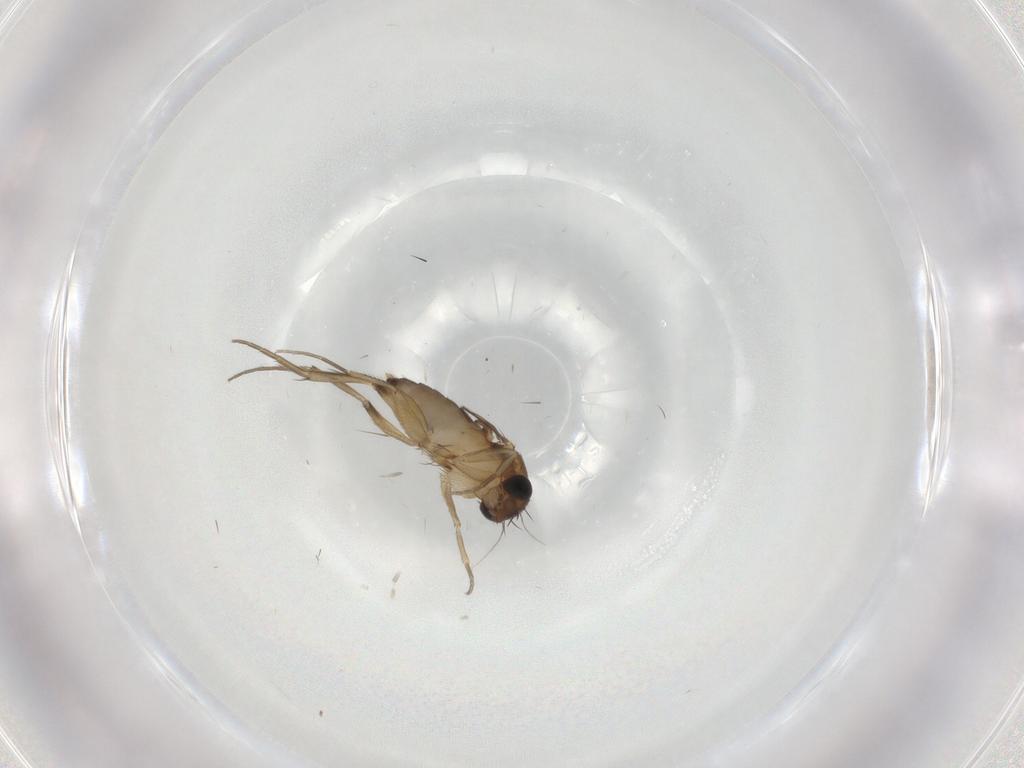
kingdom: Animalia
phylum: Arthropoda
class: Insecta
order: Diptera
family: Phoridae
